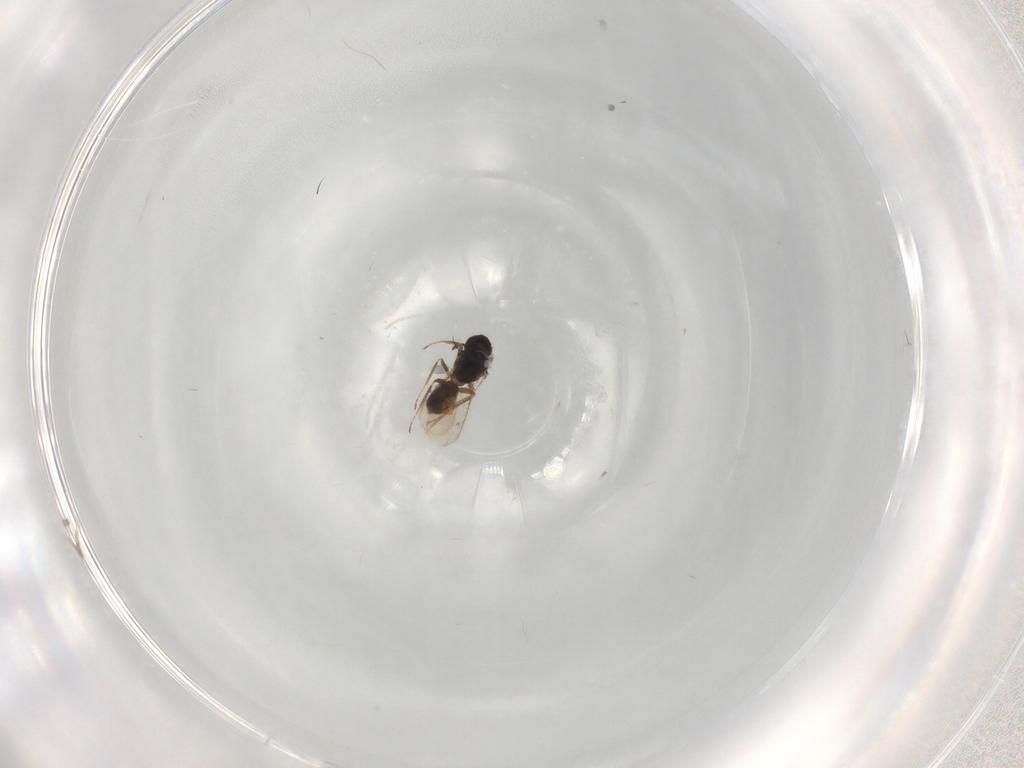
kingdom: Animalia
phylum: Arthropoda
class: Insecta
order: Hymenoptera
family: Tetracampidae
